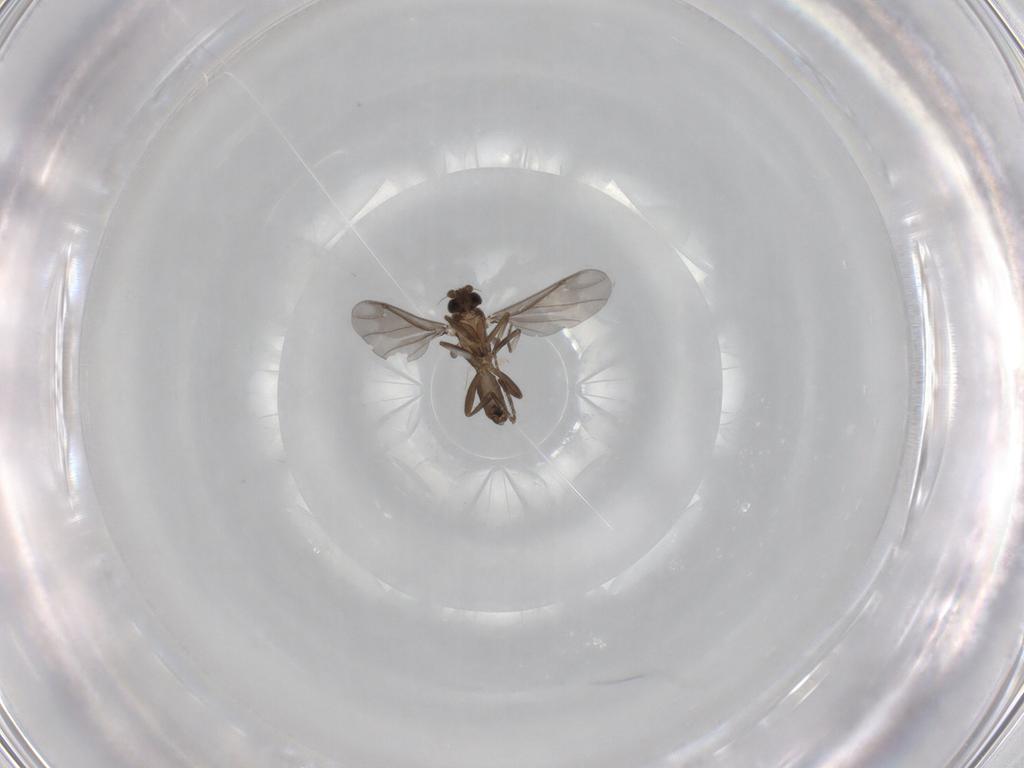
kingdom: Animalia
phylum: Arthropoda
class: Insecta
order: Diptera
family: Phoridae
